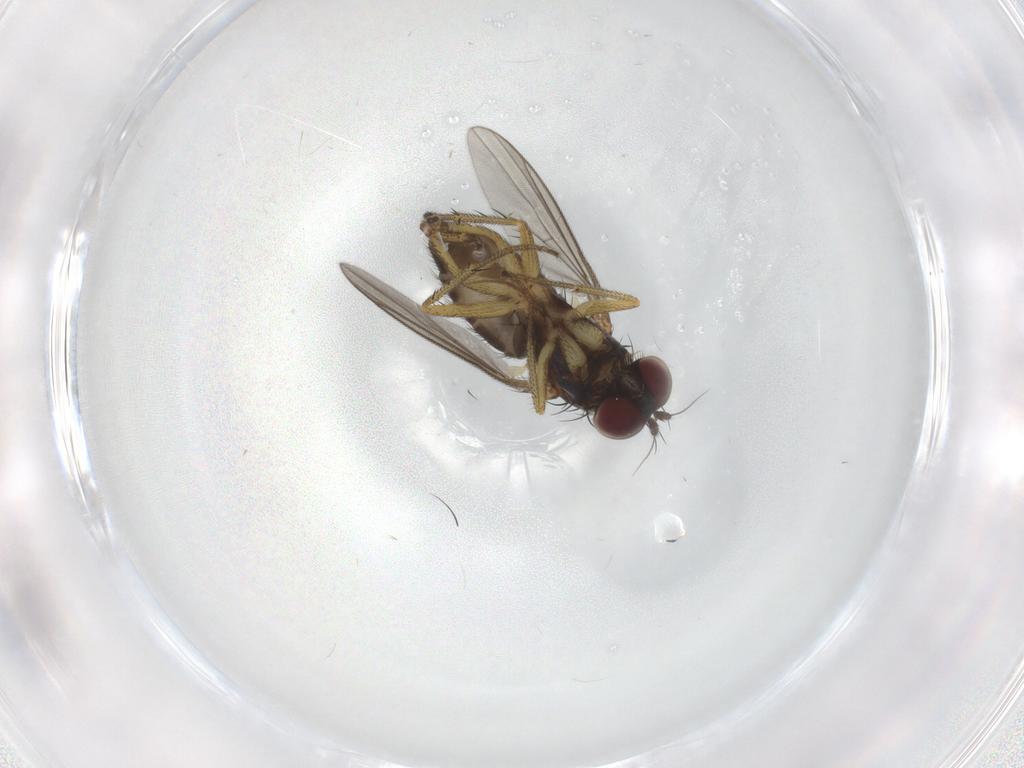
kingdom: Animalia
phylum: Arthropoda
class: Insecta
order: Diptera
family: Dolichopodidae
